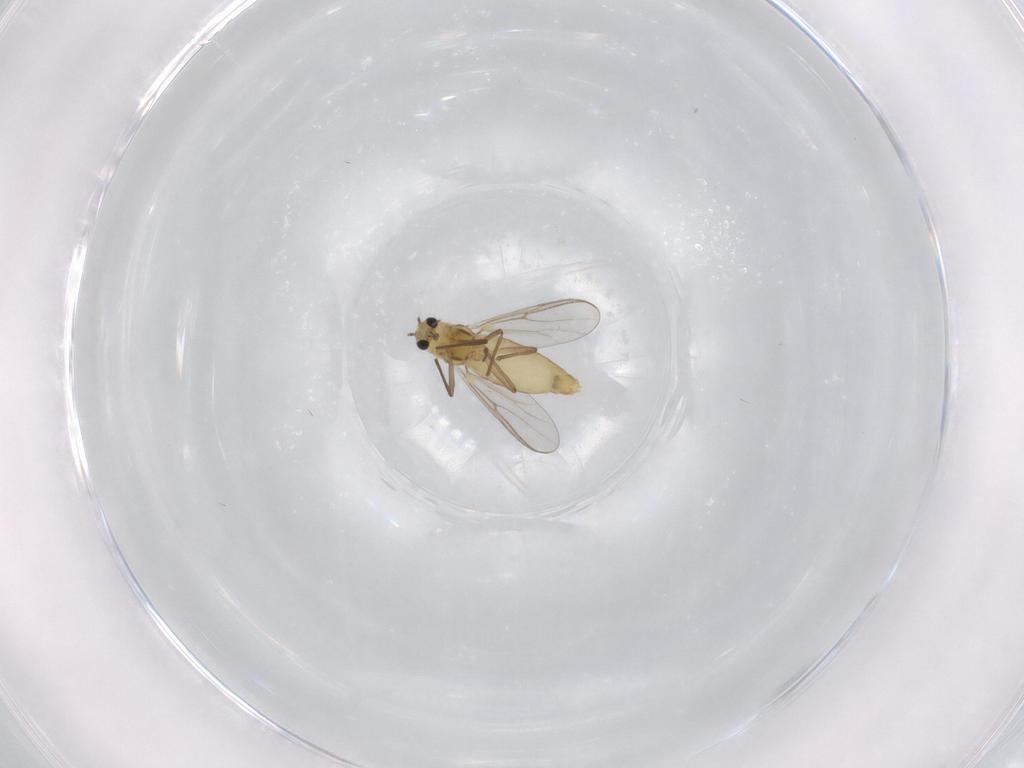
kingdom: Animalia
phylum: Arthropoda
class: Insecta
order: Diptera
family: Chironomidae
